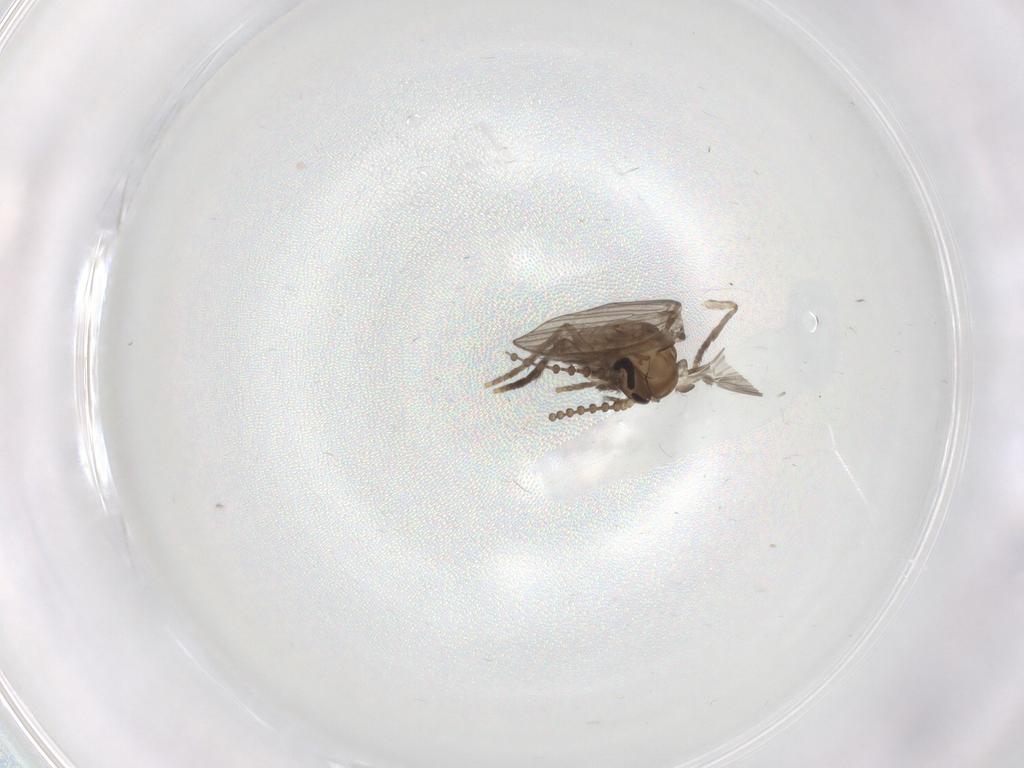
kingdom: Animalia
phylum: Arthropoda
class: Insecta
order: Diptera
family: Psychodidae
